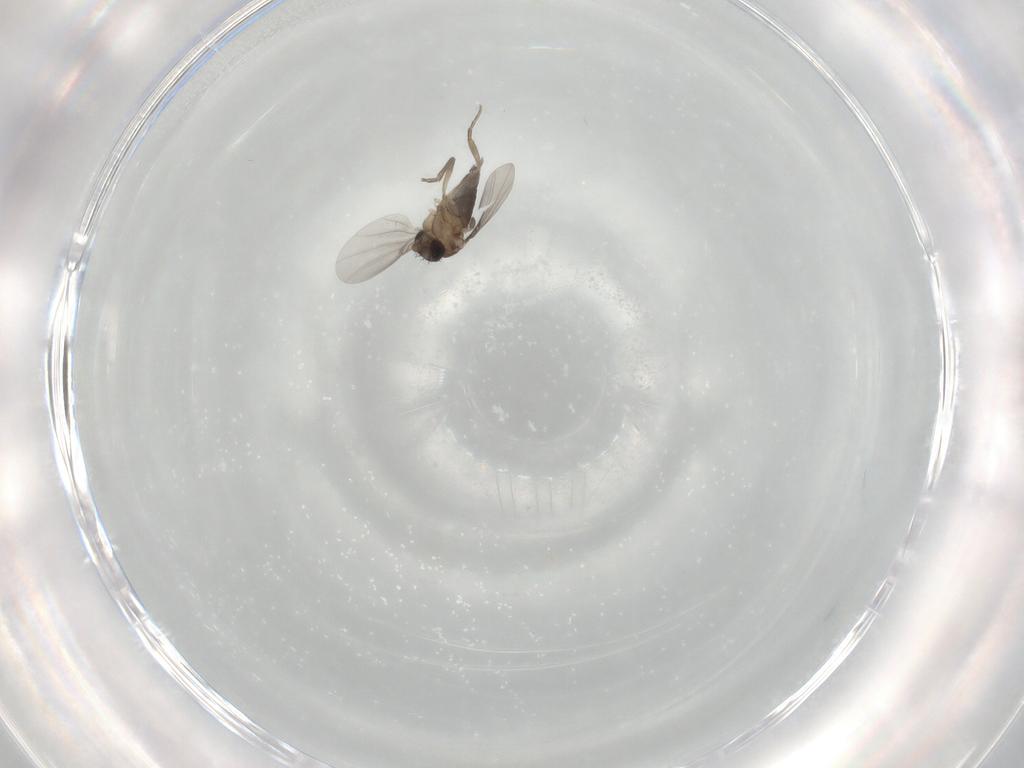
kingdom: Animalia
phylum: Arthropoda
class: Insecta
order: Diptera
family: Phoridae
